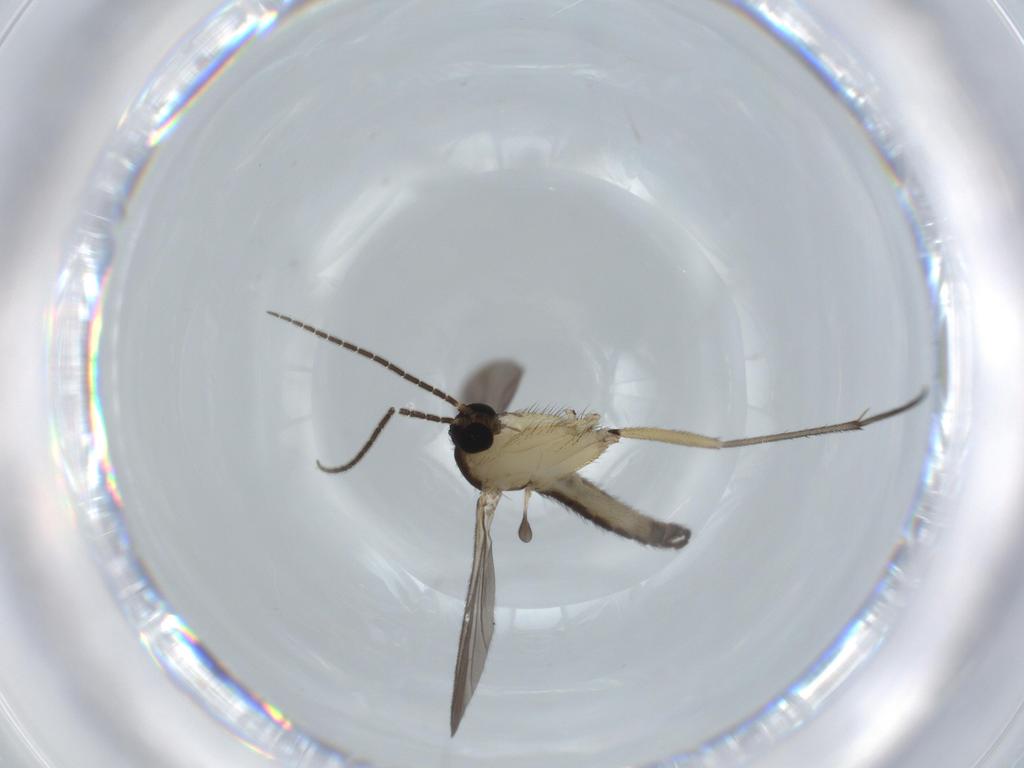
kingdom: Animalia
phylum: Arthropoda
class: Insecta
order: Diptera
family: Sciaridae
